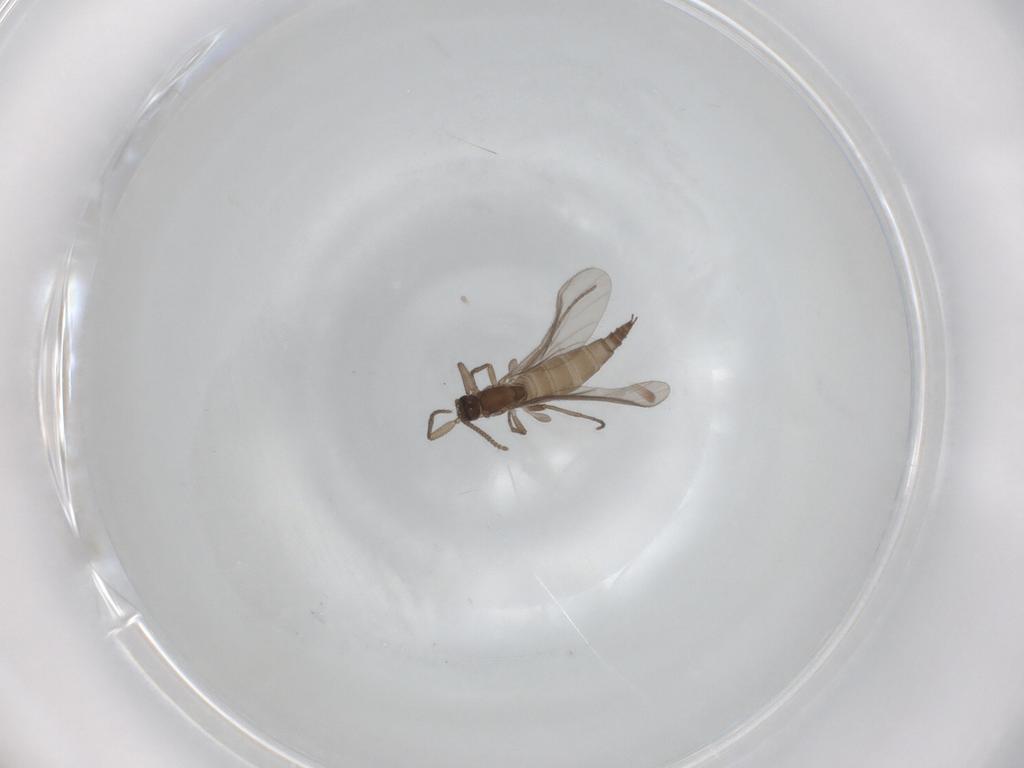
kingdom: Animalia
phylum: Arthropoda
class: Insecta
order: Diptera
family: Sciaridae
